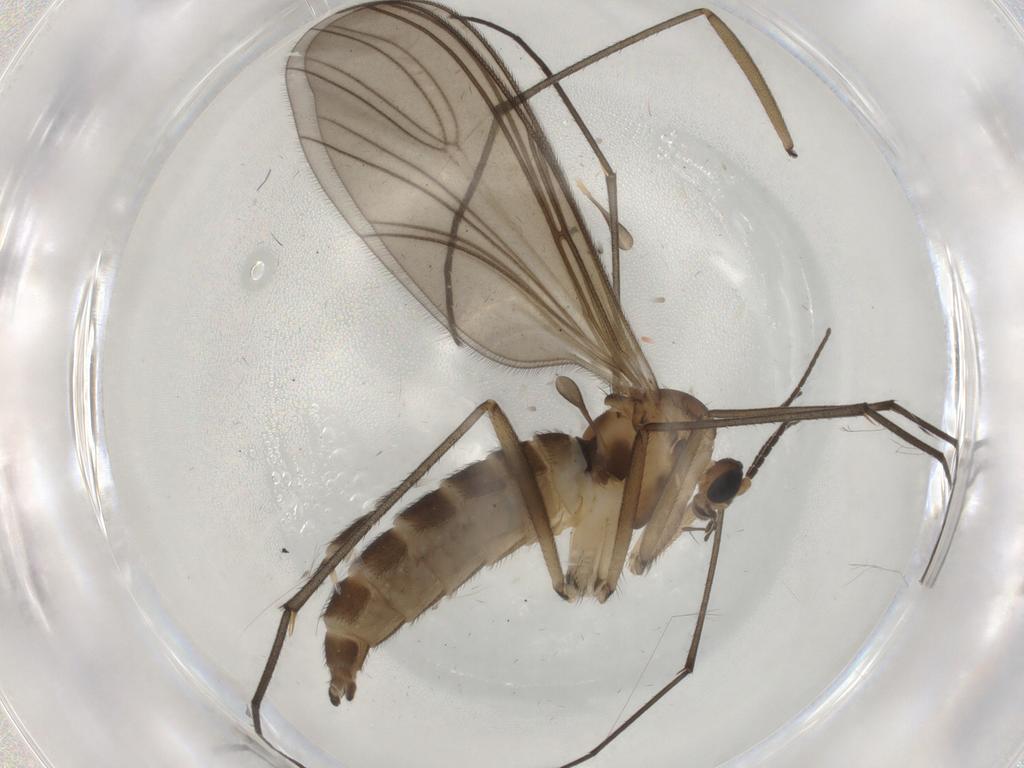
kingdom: Animalia
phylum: Arthropoda
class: Insecta
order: Diptera
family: Sciaridae
